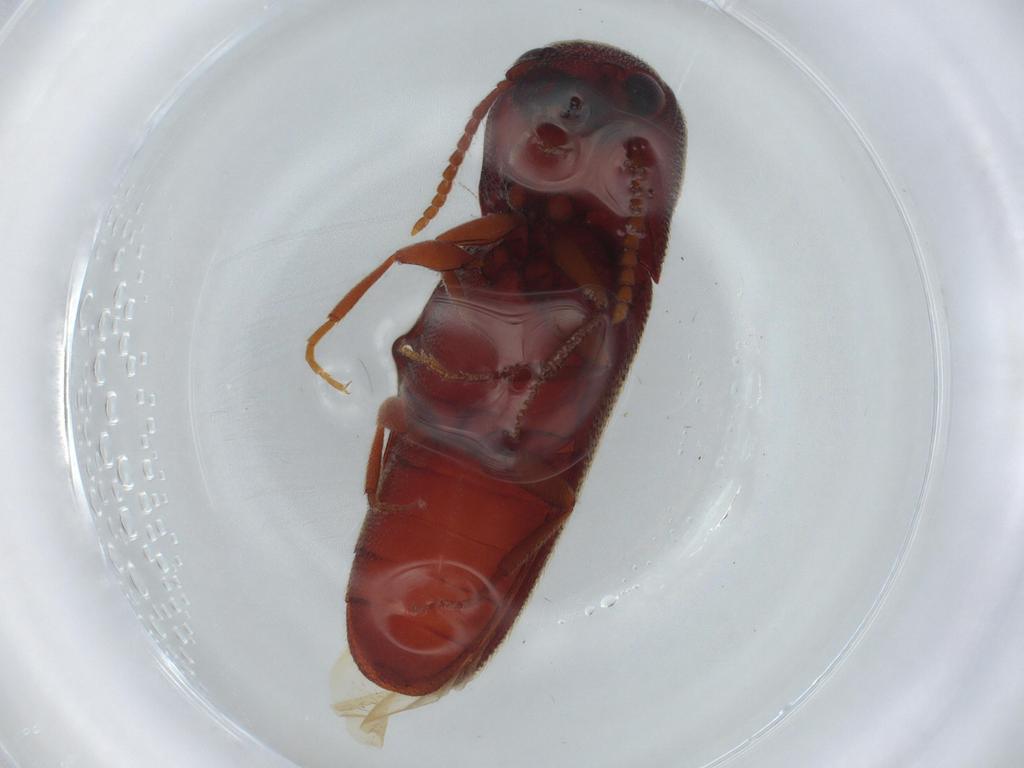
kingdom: Animalia
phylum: Arthropoda
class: Insecta
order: Coleoptera
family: Eucnemidae
